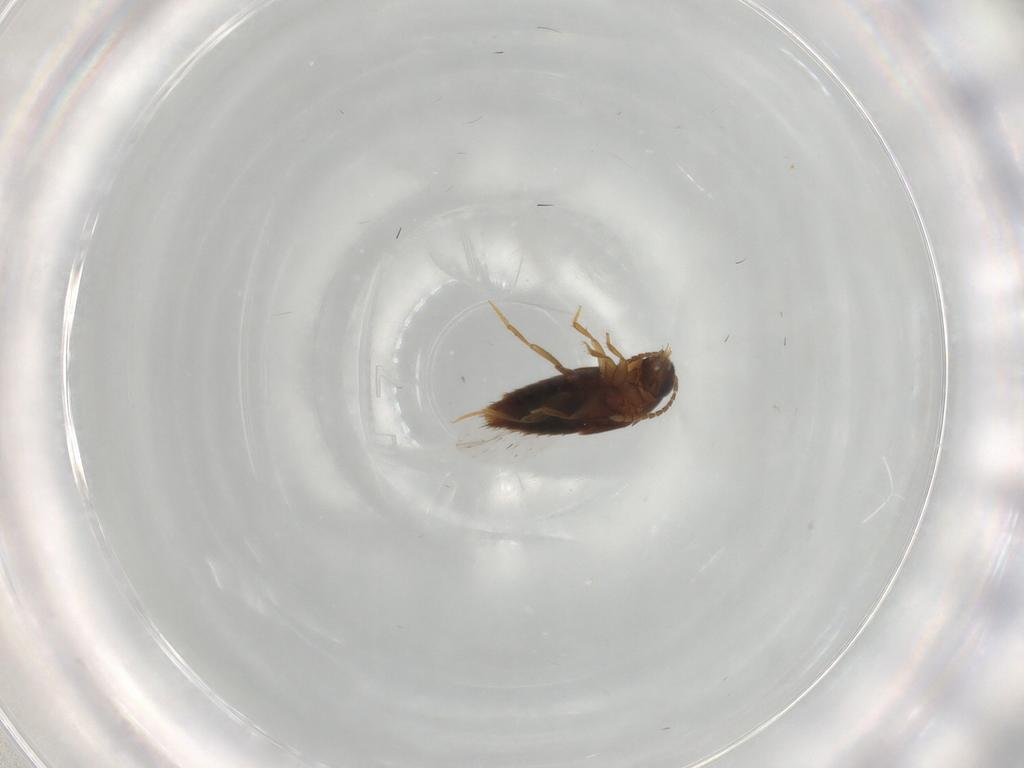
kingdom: Animalia
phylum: Arthropoda
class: Insecta
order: Coleoptera
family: Staphylinidae
